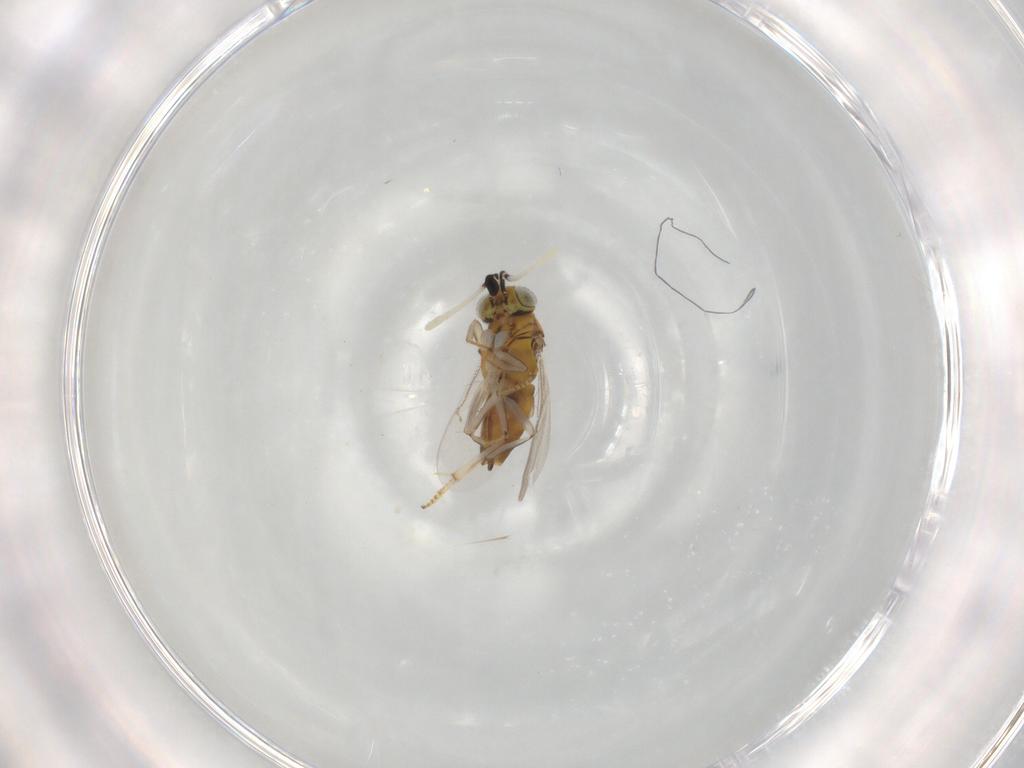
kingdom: Animalia
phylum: Arthropoda
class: Insecta
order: Hymenoptera
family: Encyrtidae
